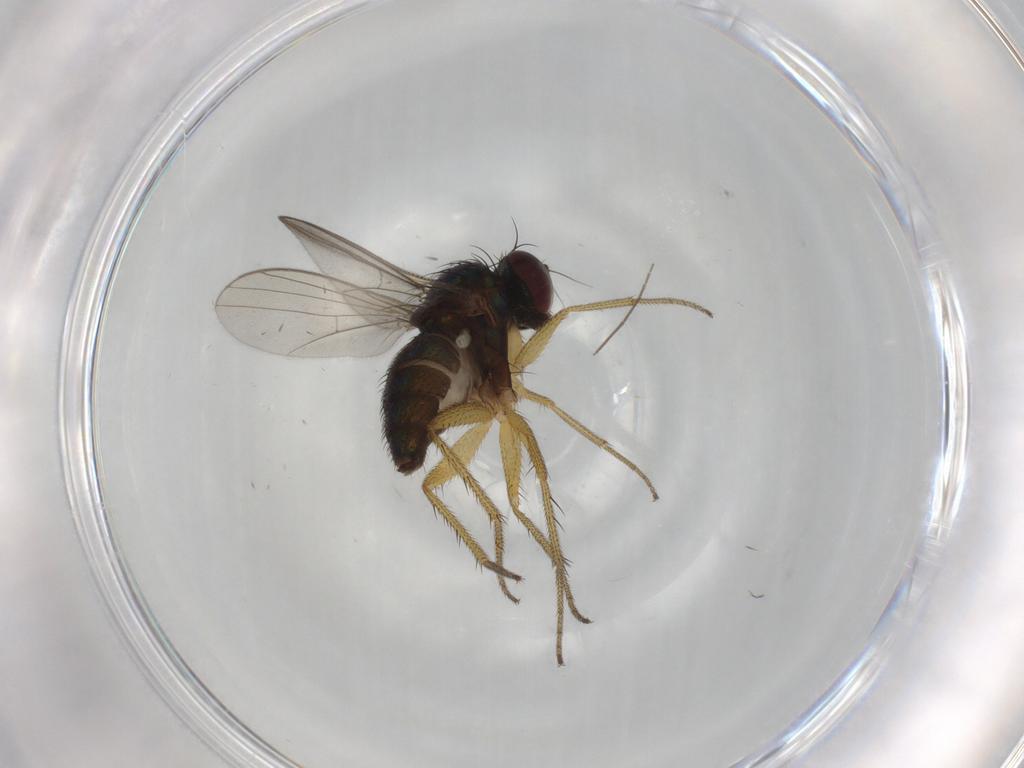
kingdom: Animalia
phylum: Arthropoda
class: Insecta
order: Diptera
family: Dolichopodidae
